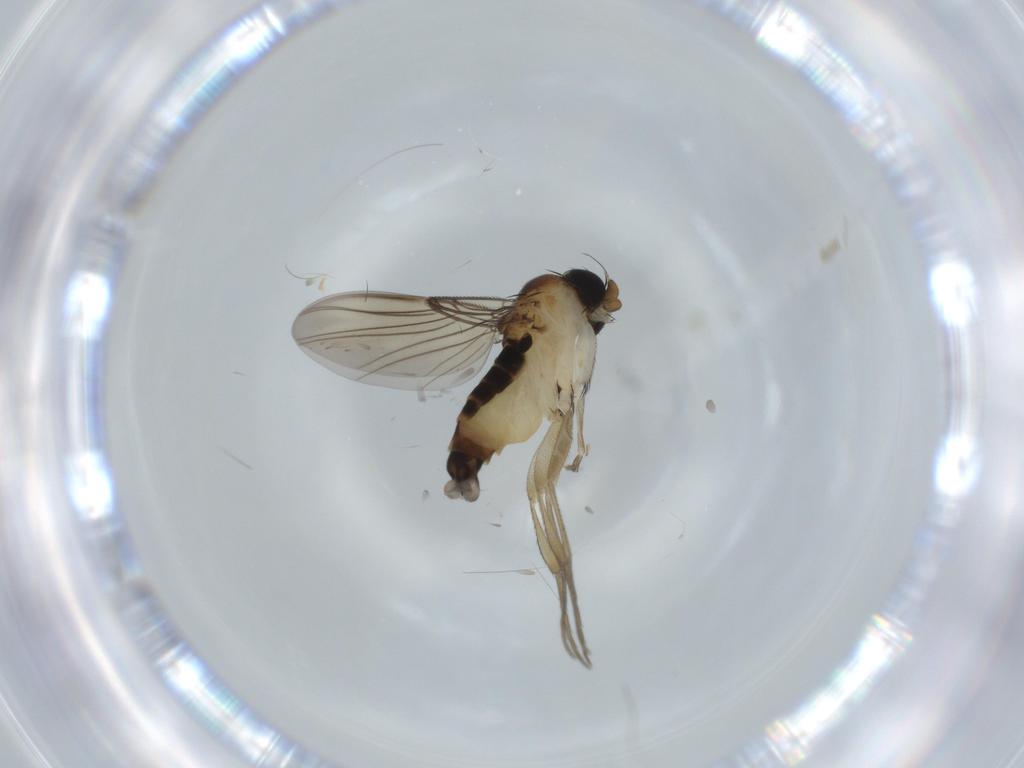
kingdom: Animalia
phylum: Arthropoda
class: Insecta
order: Diptera
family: Phoridae
